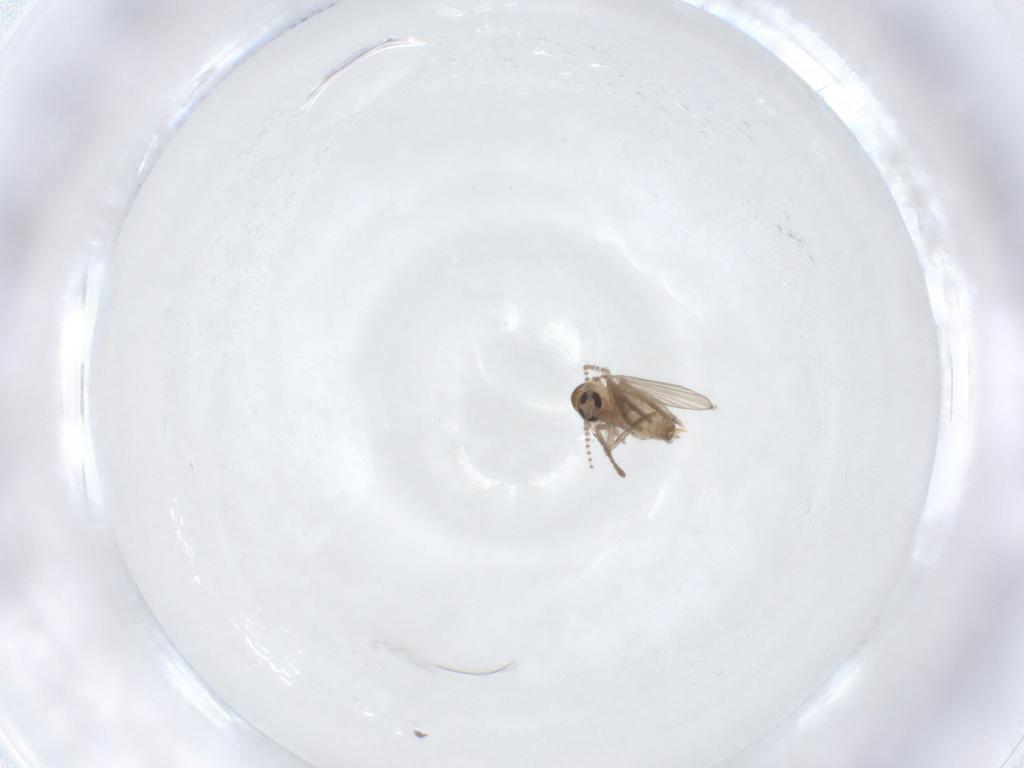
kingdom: Animalia
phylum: Arthropoda
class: Insecta
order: Diptera
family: Psychodidae
